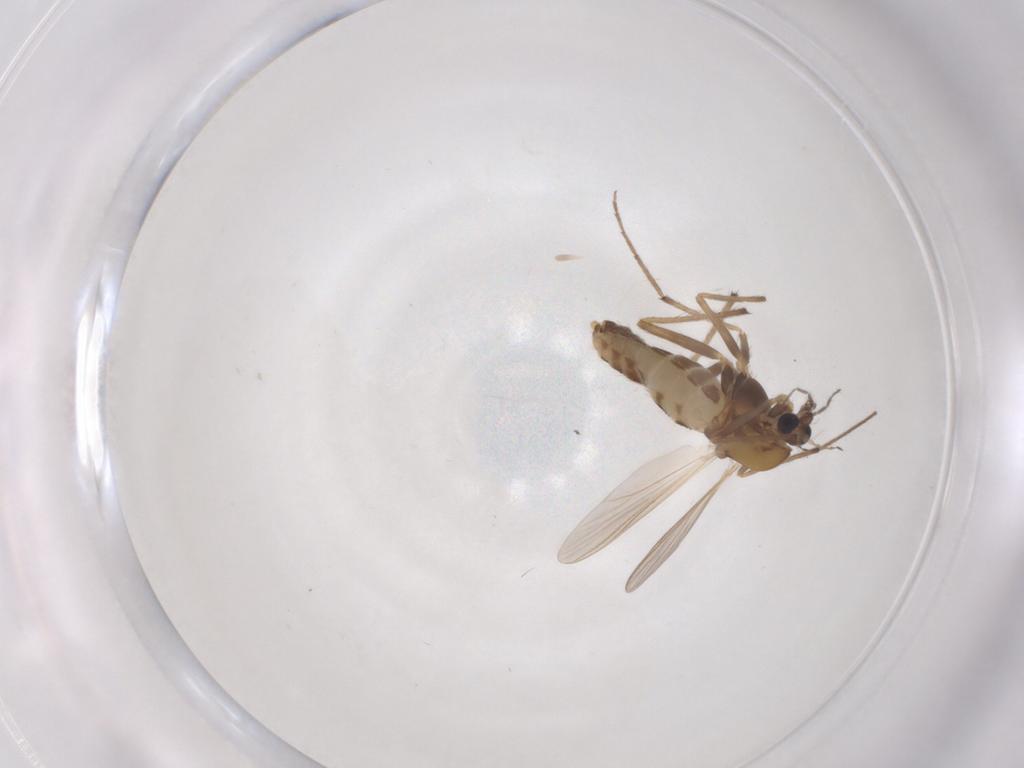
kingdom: Animalia
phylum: Arthropoda
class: Insecta
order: Diptera
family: Chironomidae
